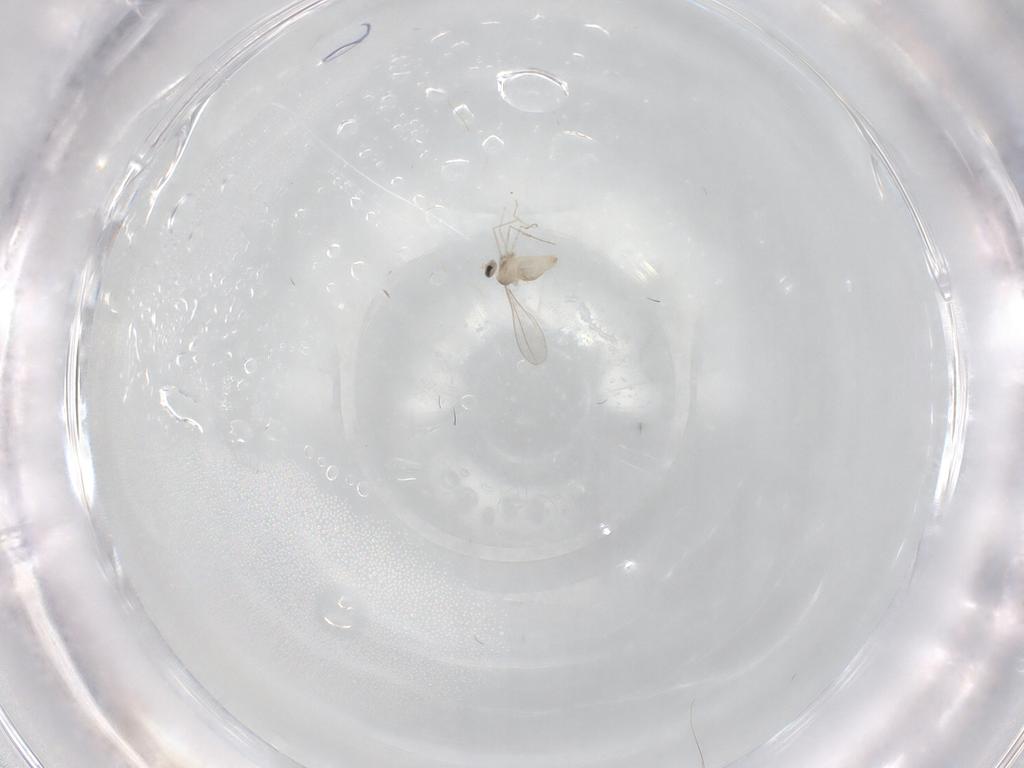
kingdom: Animalia
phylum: Arthropoda
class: Insecta
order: Diptera
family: Cecidomyiidae
